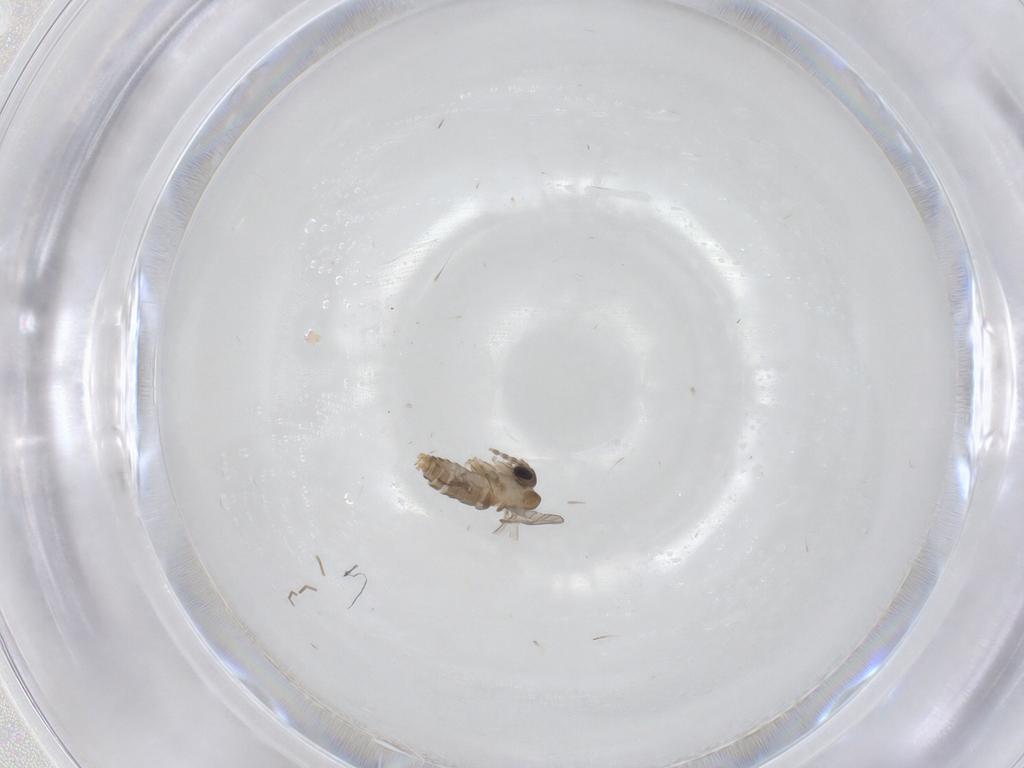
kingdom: Animalia
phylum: Arthropoda
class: Insecta
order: Diptera
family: Psychodidae
